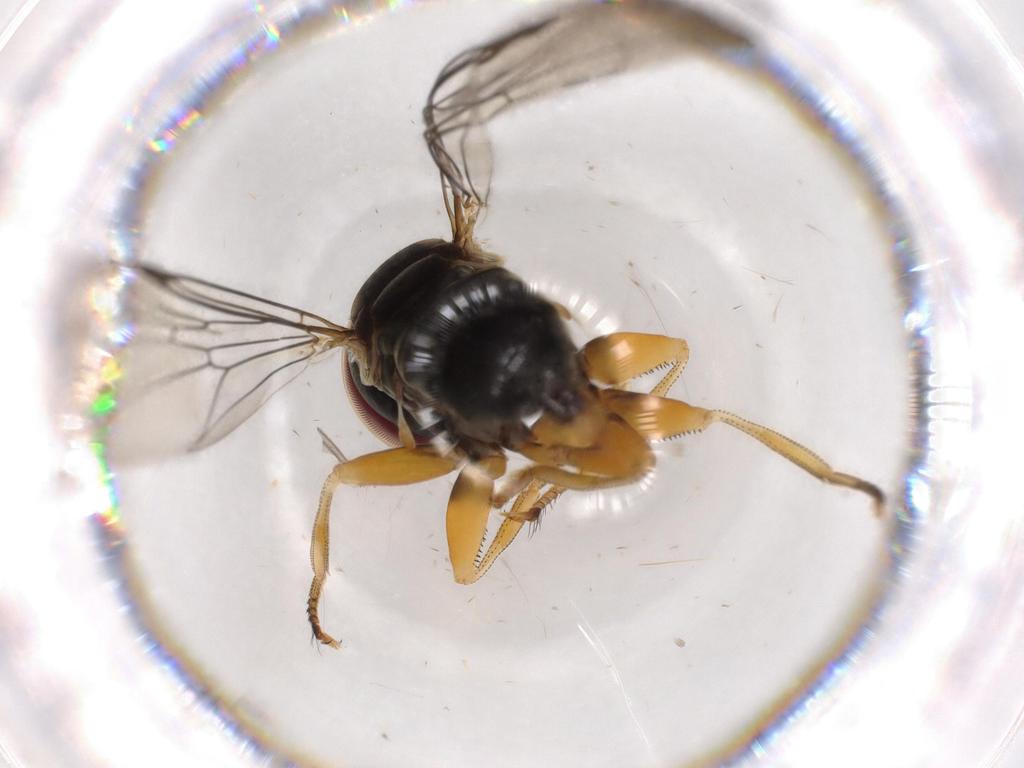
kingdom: Animalia
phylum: Arthropoda
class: Insecta
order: Diptera
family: Pipunculidae
